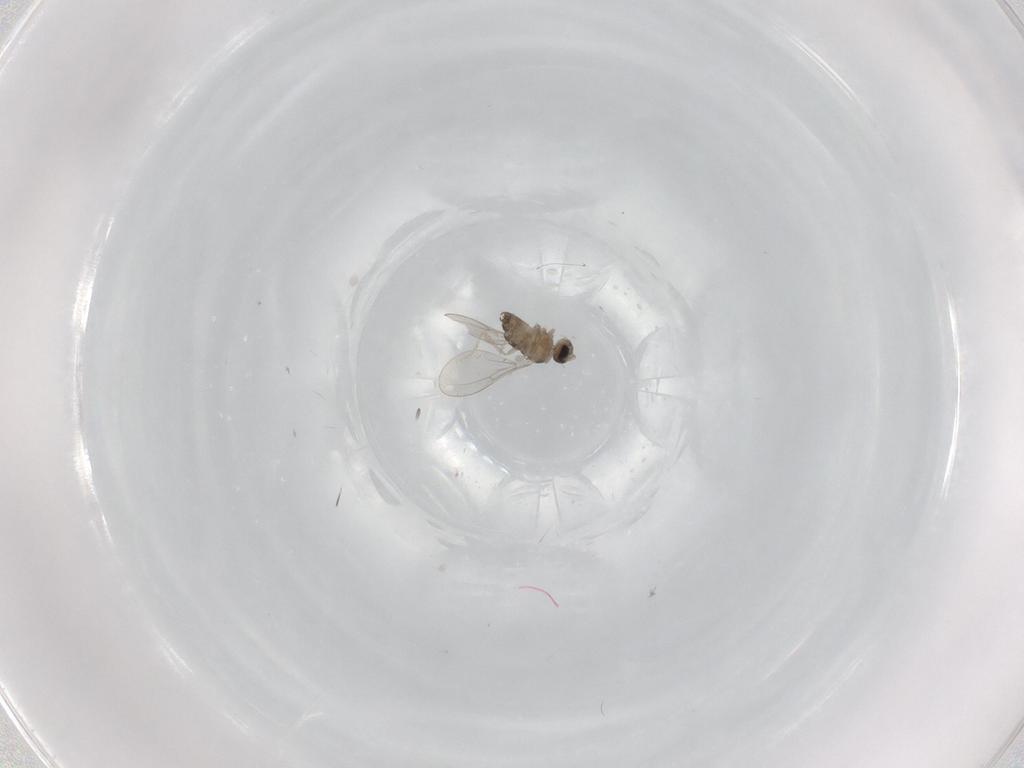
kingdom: Animalia
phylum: Arthropoda
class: Insecta
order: Diptera
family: Cecidomyiidae
